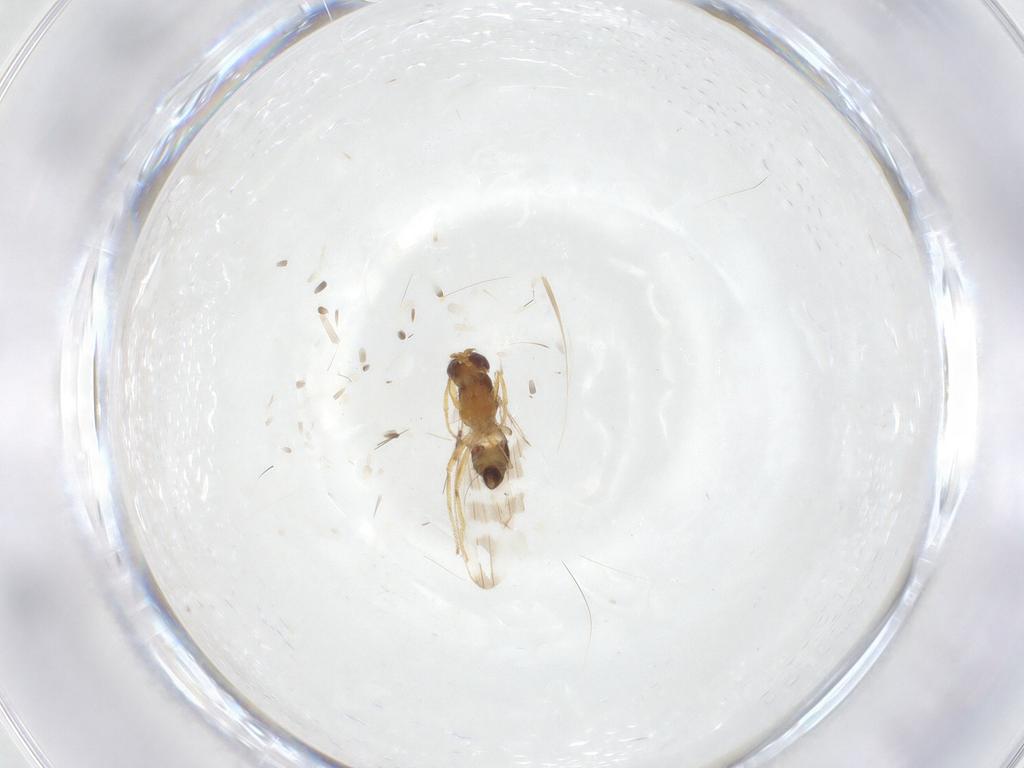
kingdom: Animalia
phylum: Arthropoda
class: Insecta
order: Diptera
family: Periscelididae
